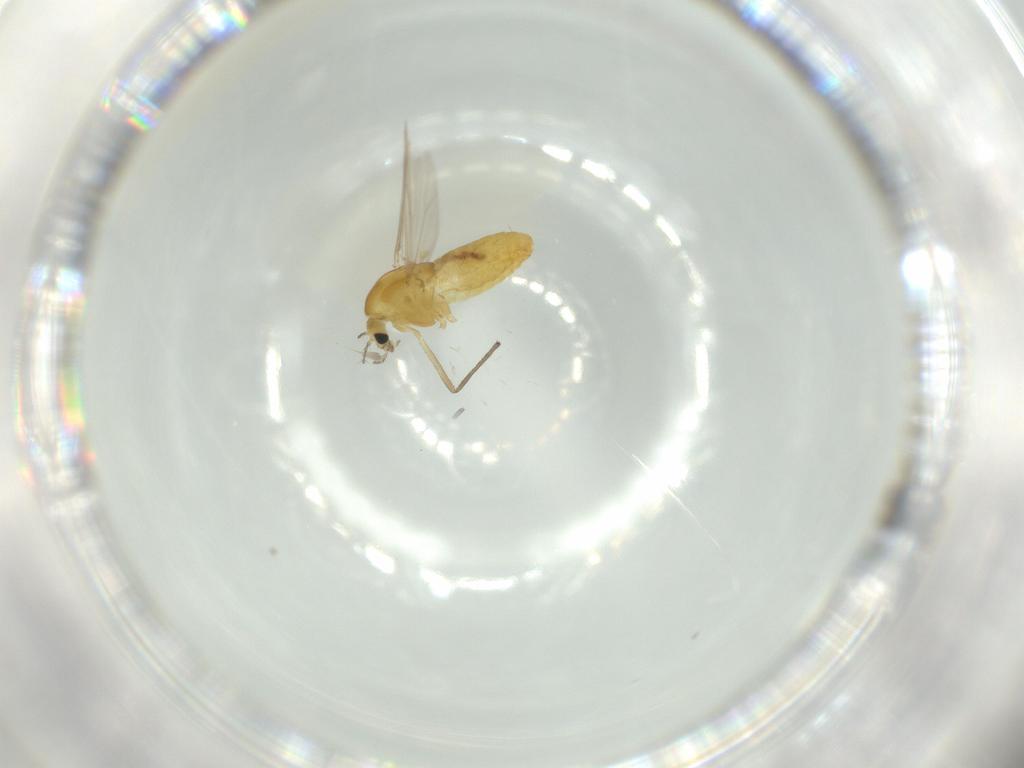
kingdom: Animalia
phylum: Arthropoda
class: Insecta
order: Diptera
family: Chironomidae
